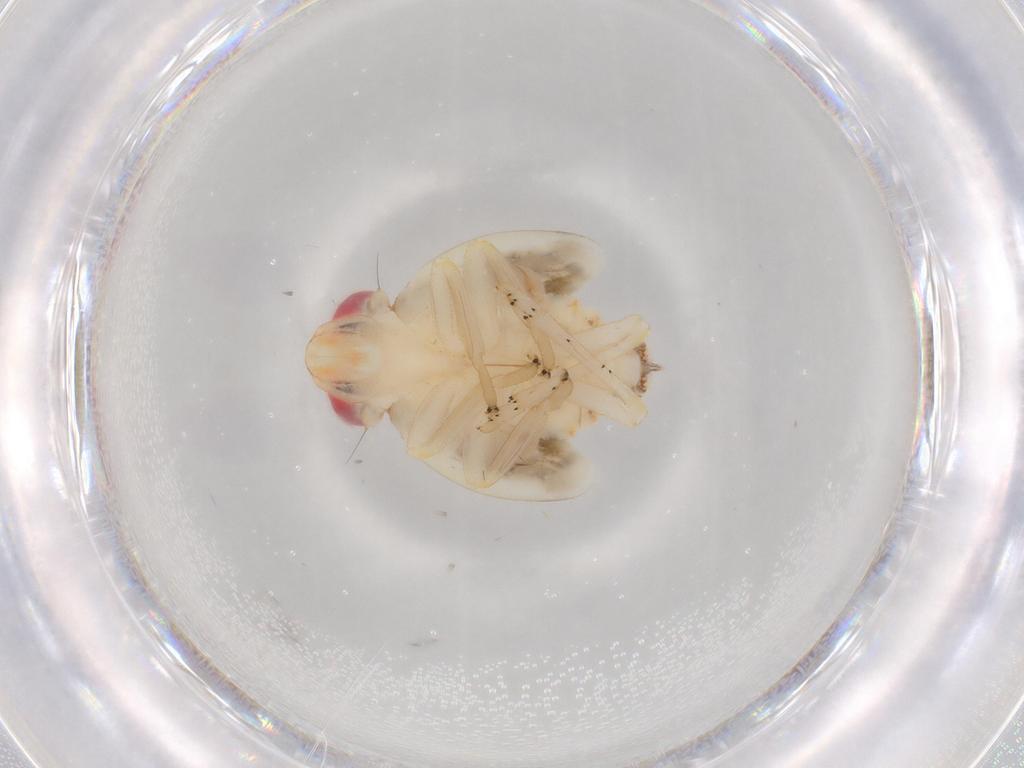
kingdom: Animalia
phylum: Arthropoda
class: Insecta
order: Hemiptera
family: Nogodinidae
